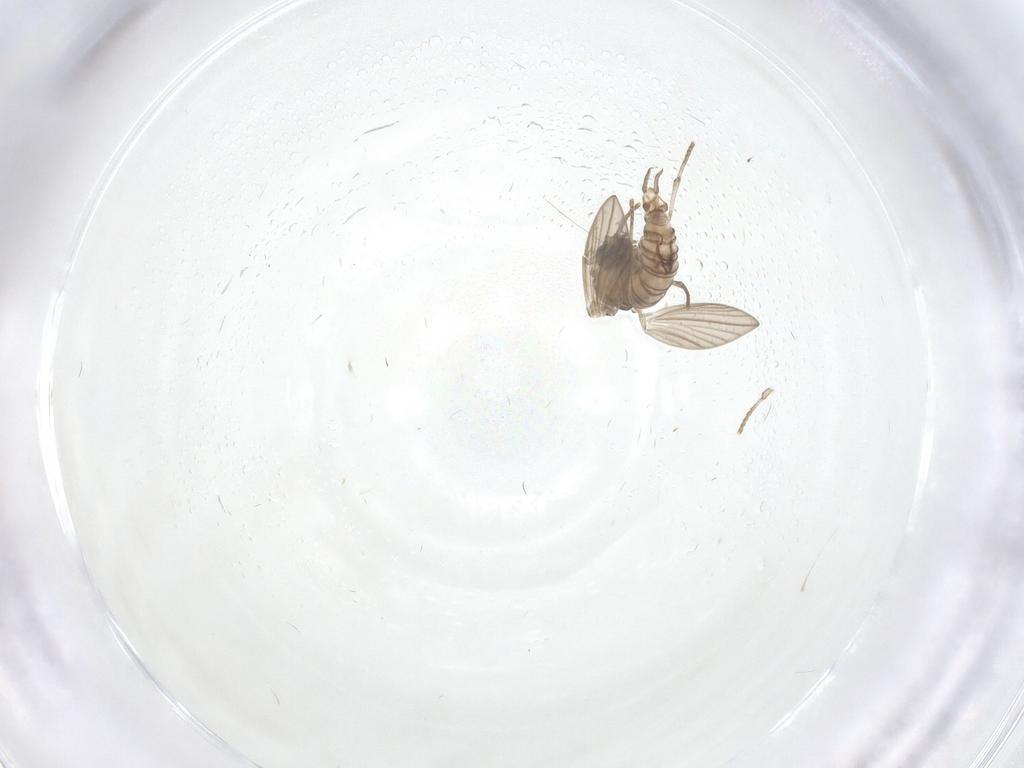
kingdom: Animalia
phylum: Arthropoda
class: Insecta
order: Diptera
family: Psychodidae
